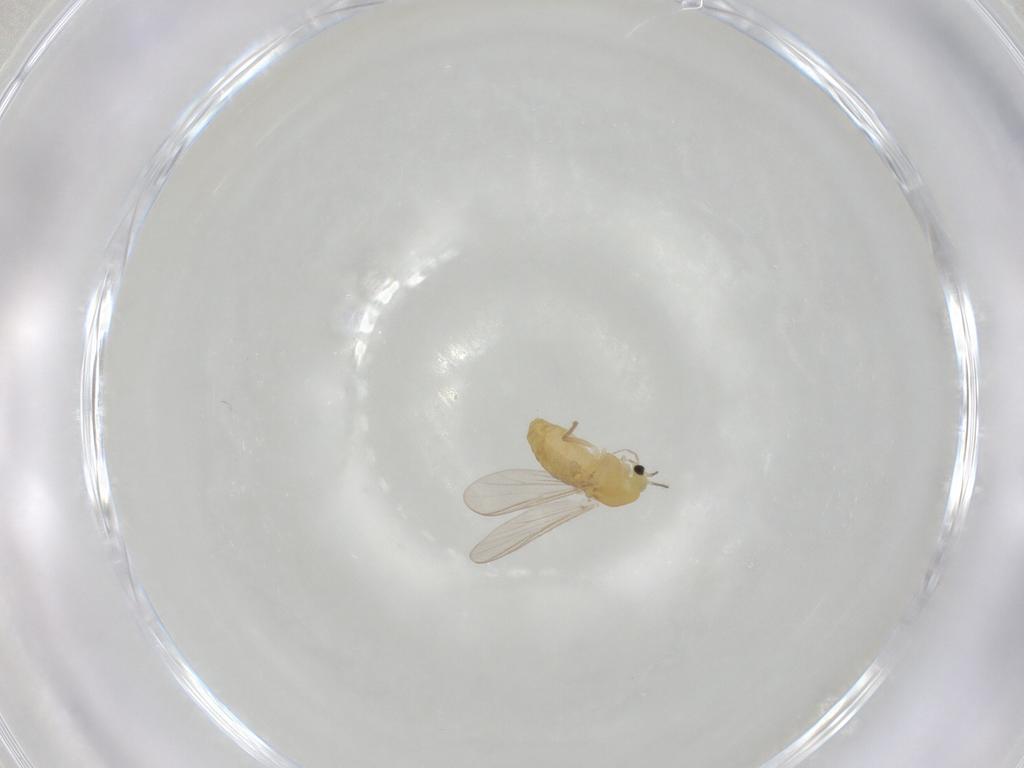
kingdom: Animalia
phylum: Arthropoda
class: Insecta
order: Diptera
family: Chironomidae
